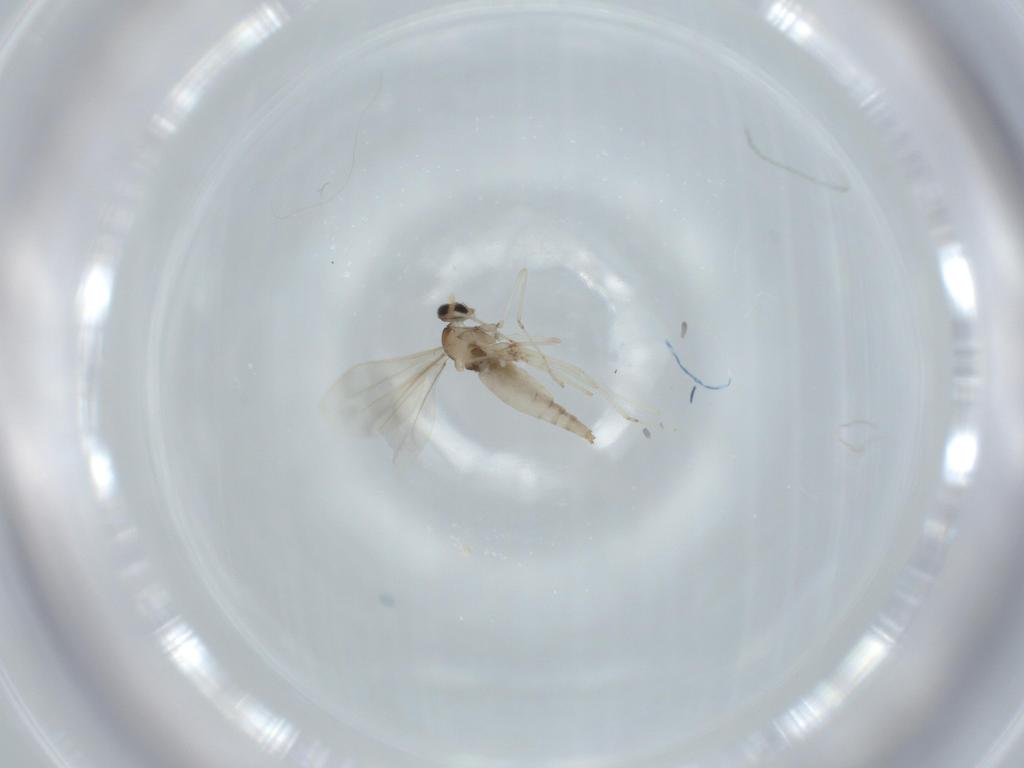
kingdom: Animalia
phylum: Arthropoda
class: Insecta
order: Diptera
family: Cecidomyiidae
